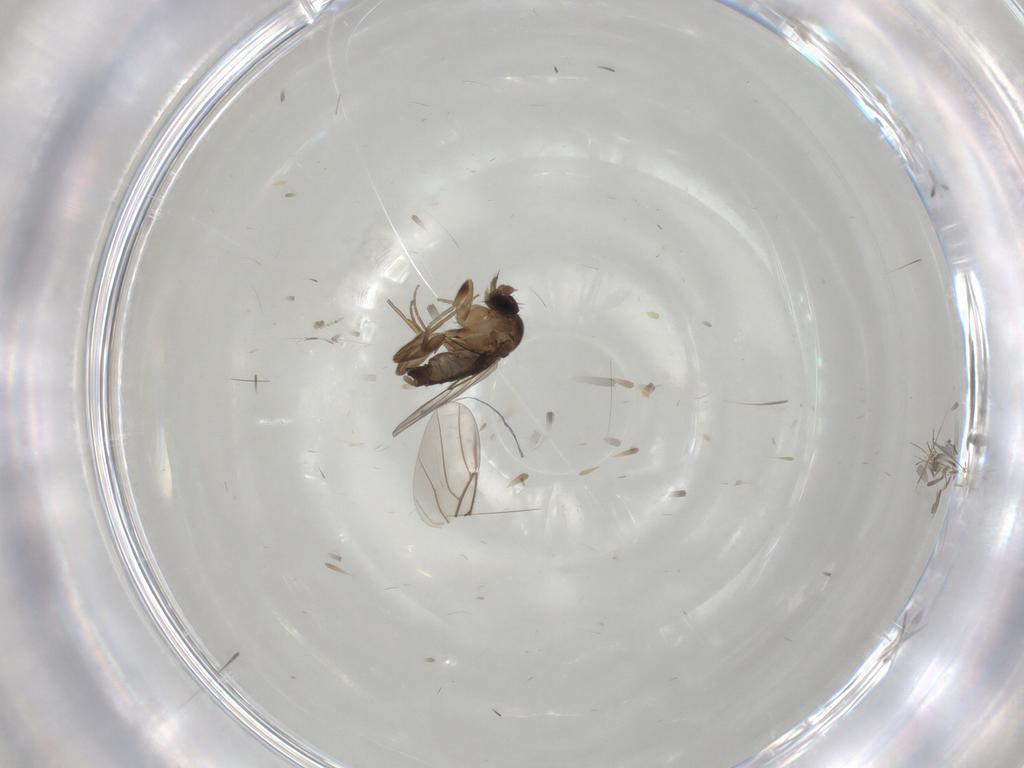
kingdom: Animalia
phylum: Arthropoda
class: Insecta
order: Diptera
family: Phoridae
